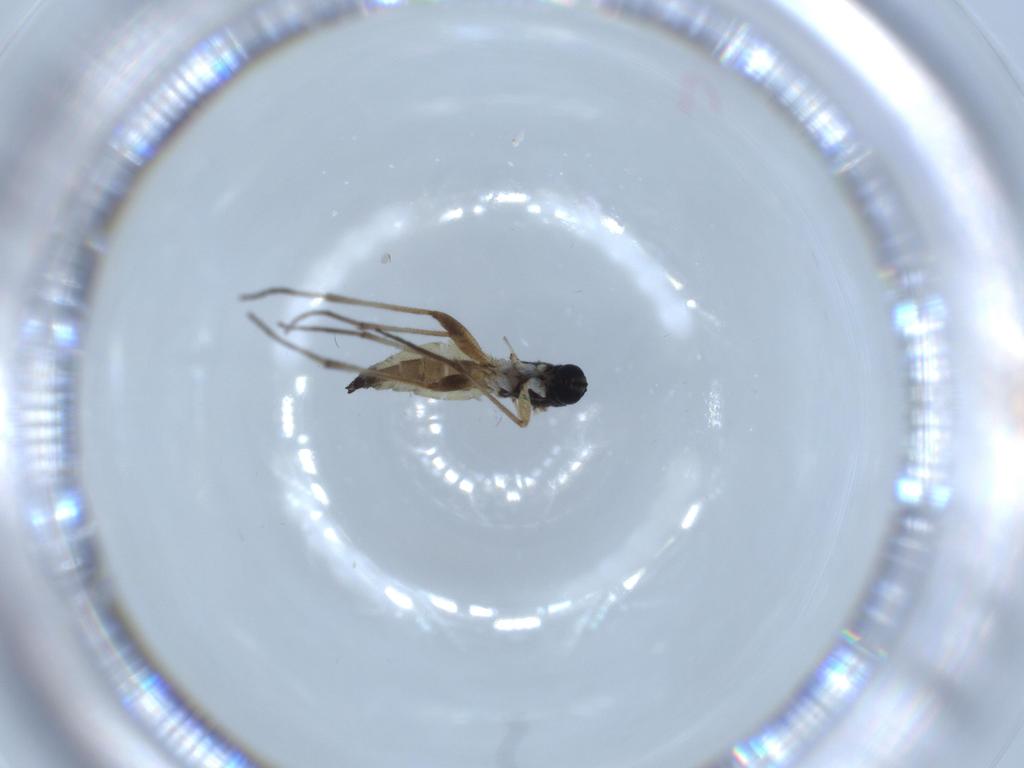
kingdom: Animalia
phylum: Arthropoda
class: Insecta
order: Diptera
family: Sciaridae
